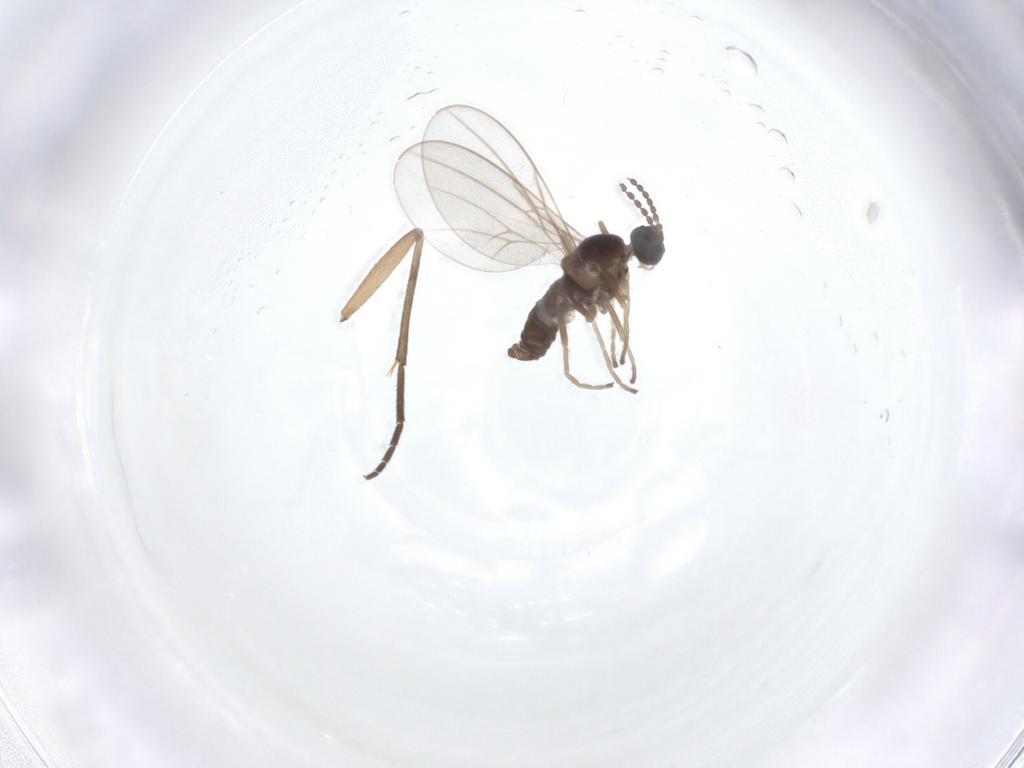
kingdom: Animalia
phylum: Arthropoda
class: Insecta
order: Diptera
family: Cecidomyiidae
